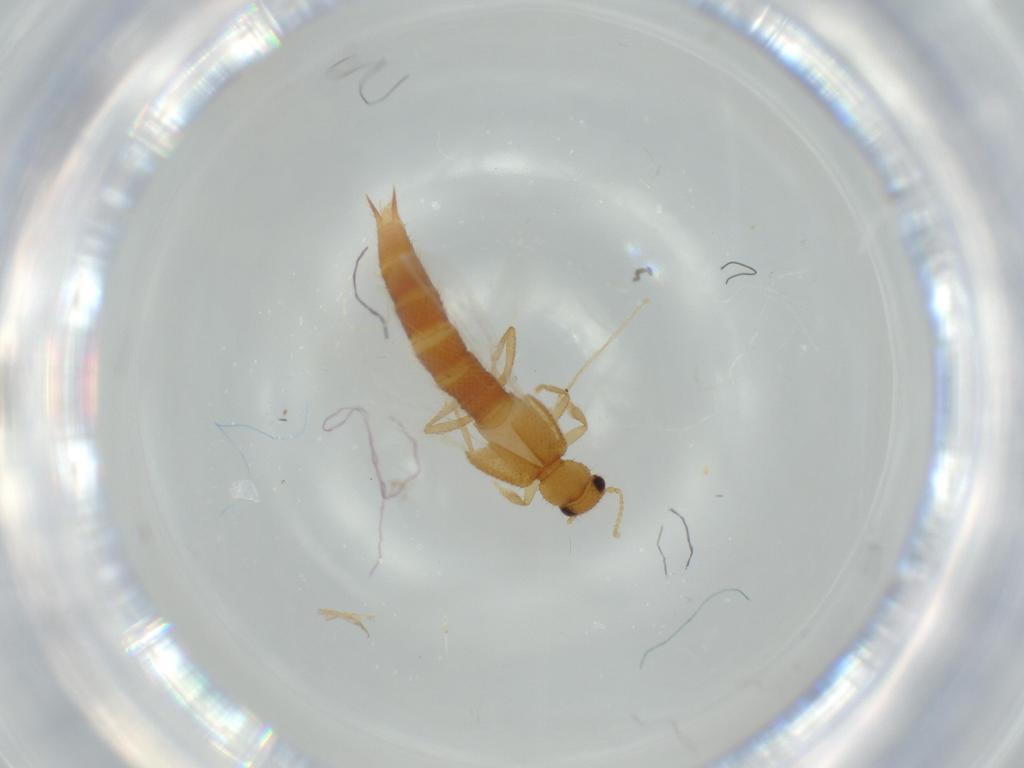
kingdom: Animalia
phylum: Arthropoda
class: Insecta
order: Coleoptera
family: Staphylinidae
